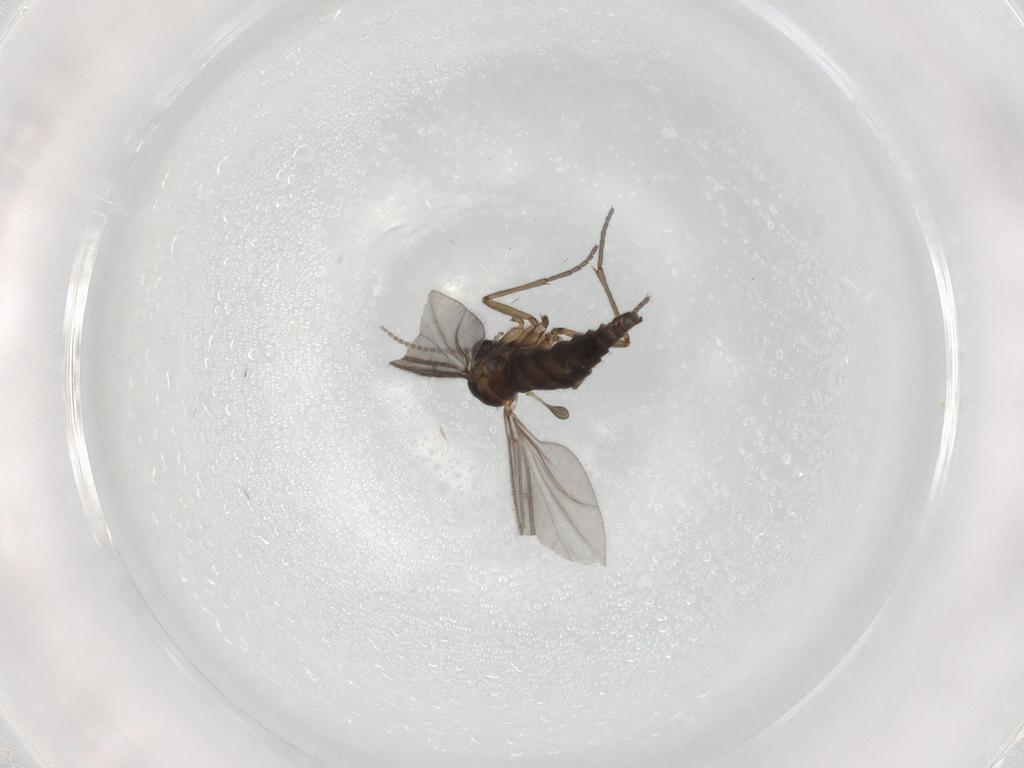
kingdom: Animalia
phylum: Arthropoda
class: Insecta
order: Diptera
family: Sciaridae
